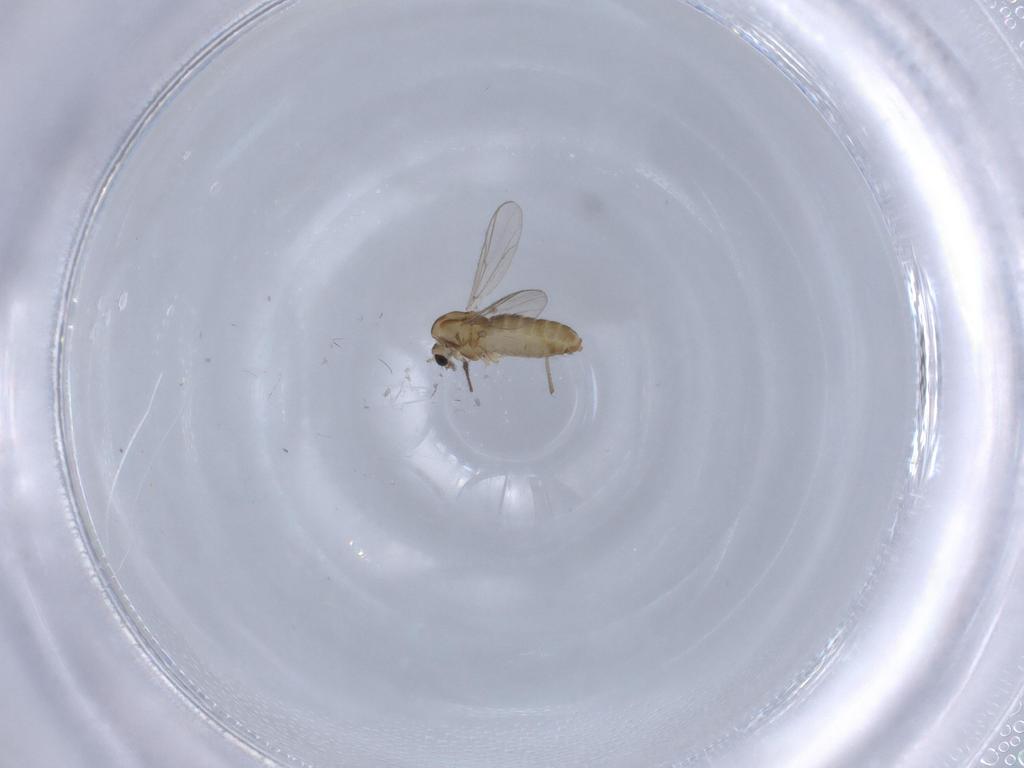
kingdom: Animalia
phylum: Arthropoda
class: Insecta
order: Diptera
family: Chironomidae
